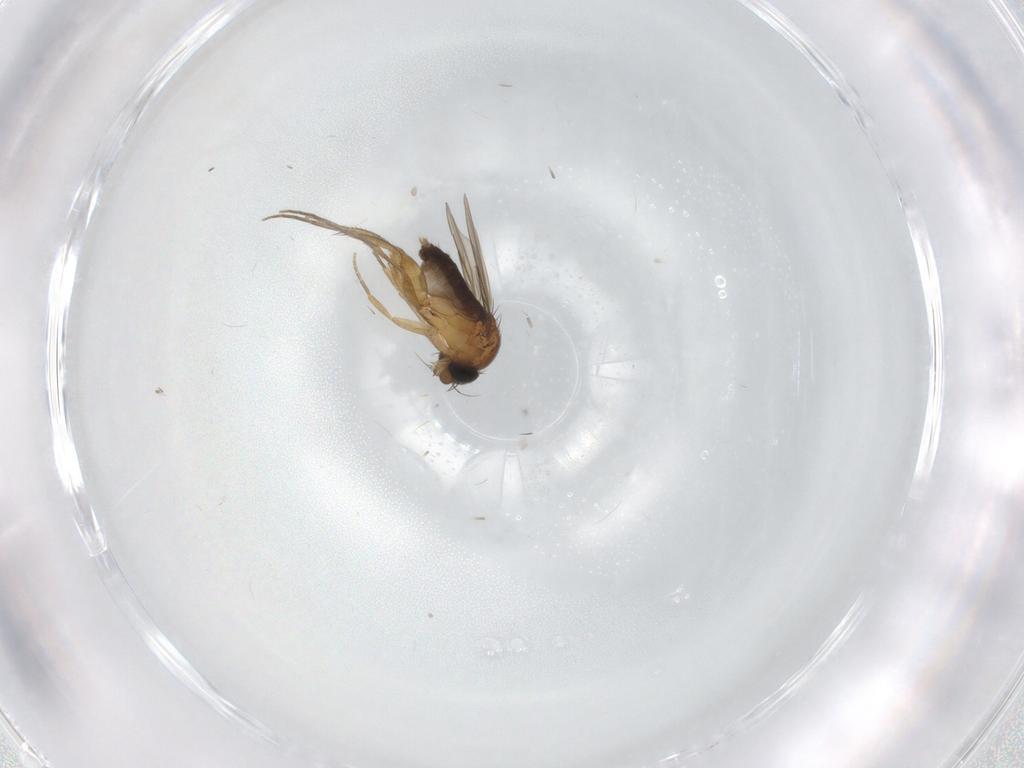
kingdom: Animalia
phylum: Arthropoda
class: Insecta
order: Diptera
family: Phoridae
